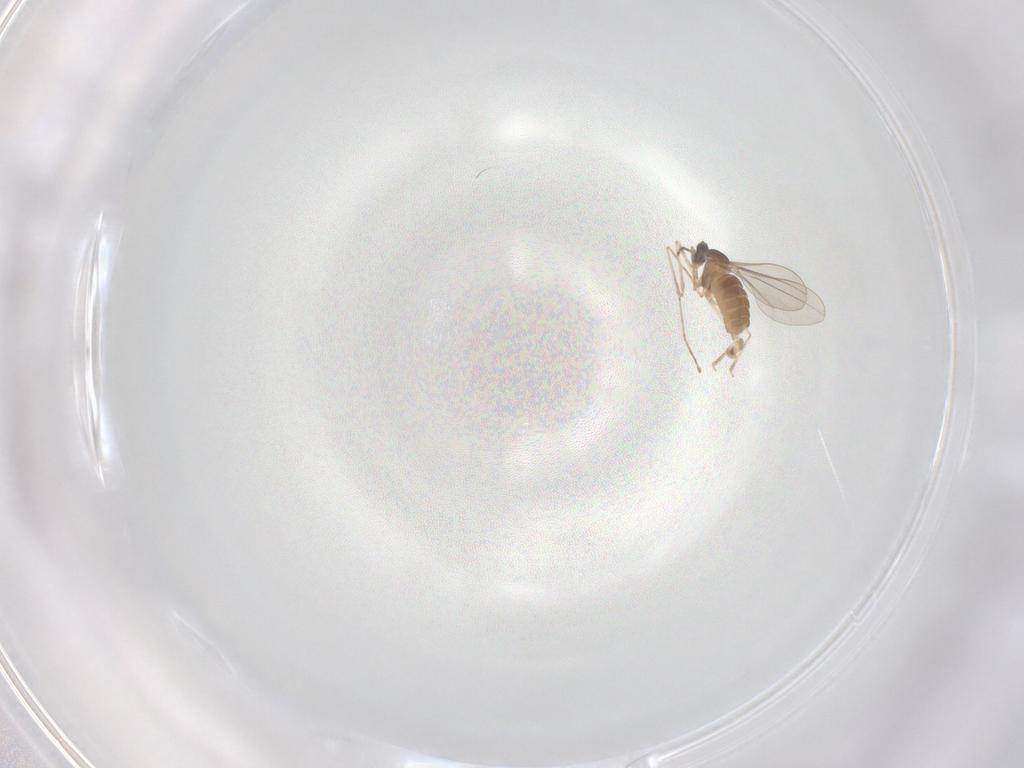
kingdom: Animalia
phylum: Arthropoda
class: Insecta
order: Diptera
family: Cecidomyiidae
